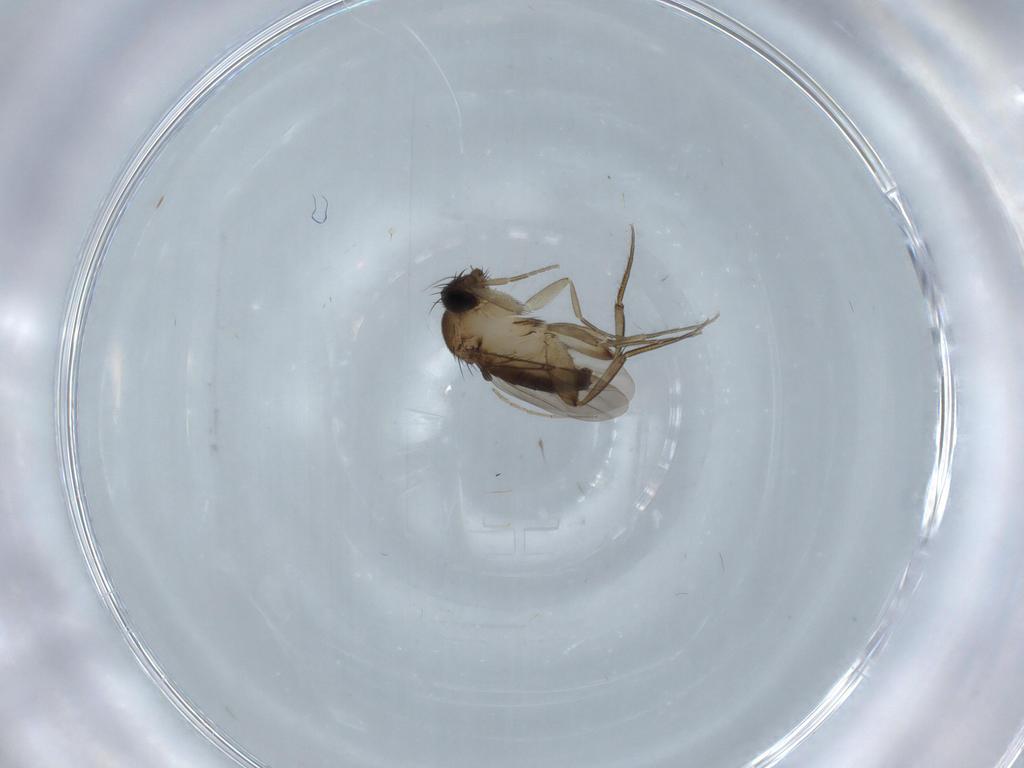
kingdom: Animalia
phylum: Arthropoda
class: Insecta
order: Diptera
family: Phoridae
